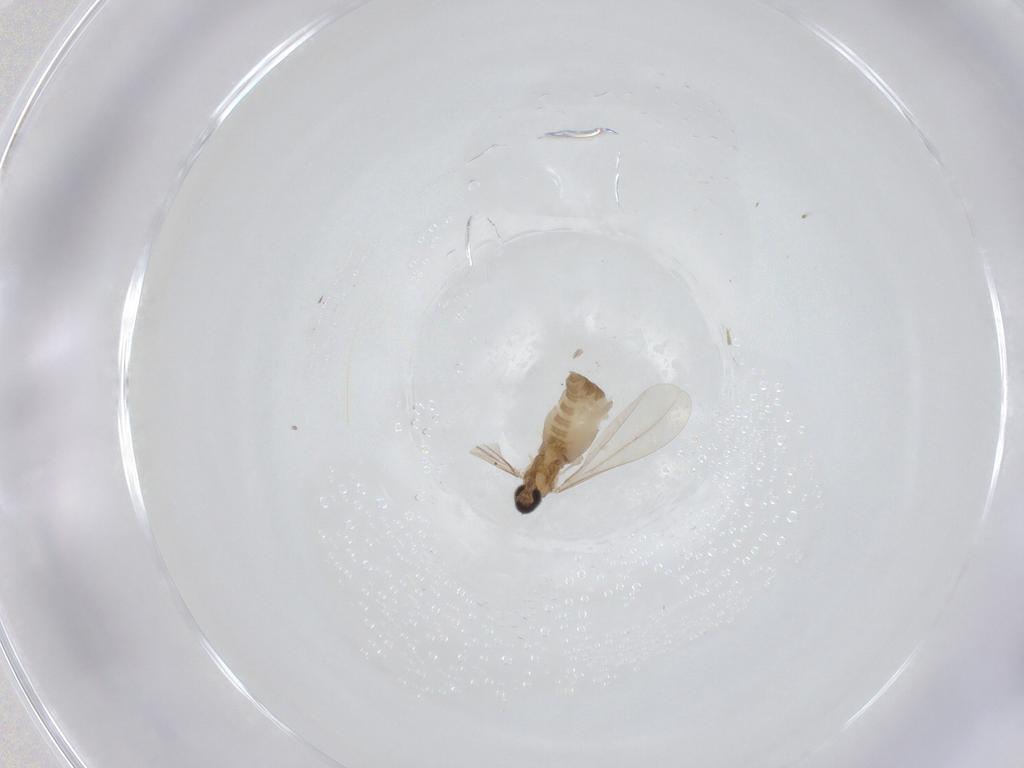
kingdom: Animalia
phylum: Arthropoda
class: Insecta
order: Diptera
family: Cecidomyiidae
